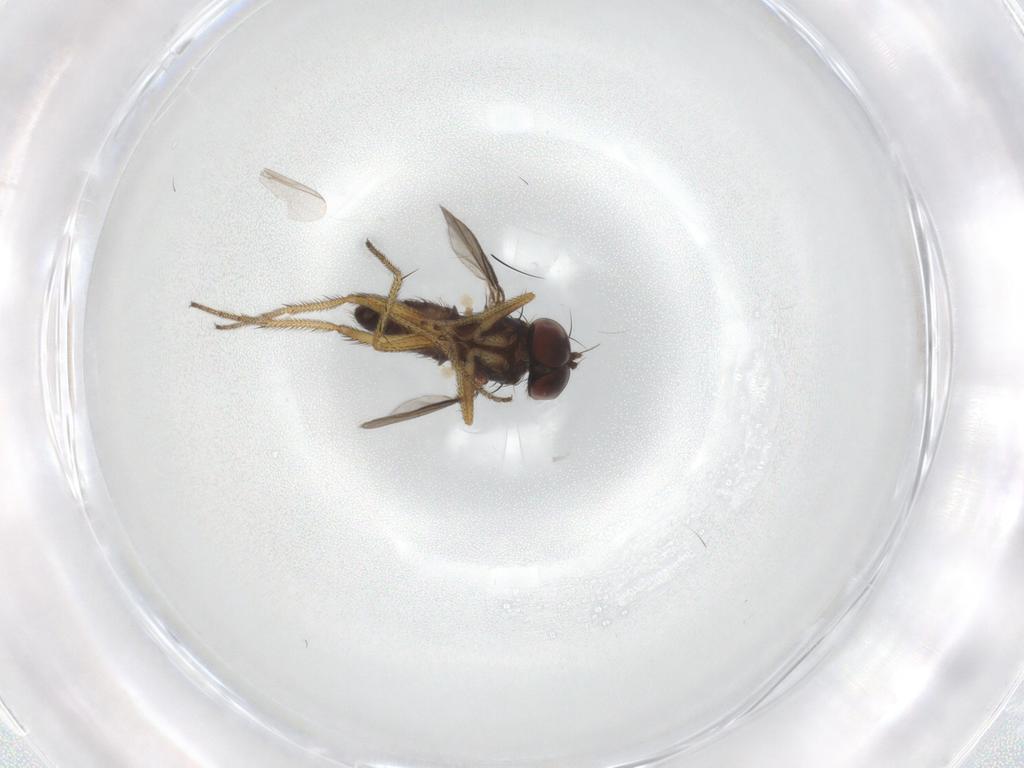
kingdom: Animalia
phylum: Arthropoda
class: Insecta
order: Diptera
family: Dolichopodidae
